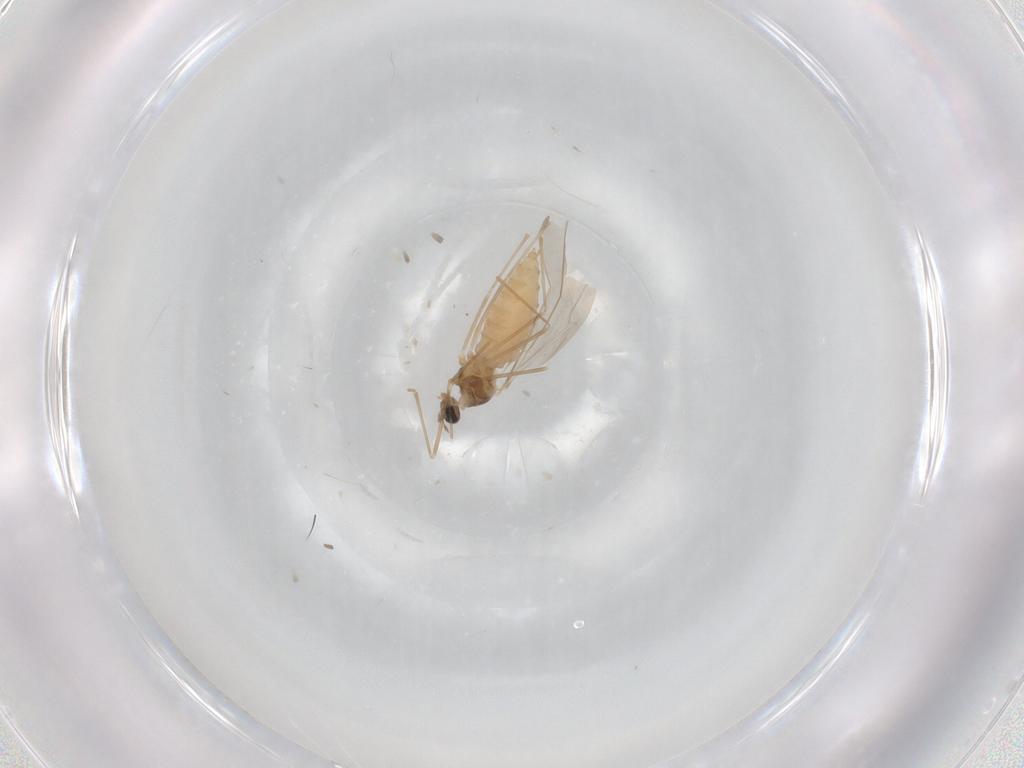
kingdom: Animalia
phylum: Arthropoda
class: Insecta
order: Diptera
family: Cecidomyiidae
